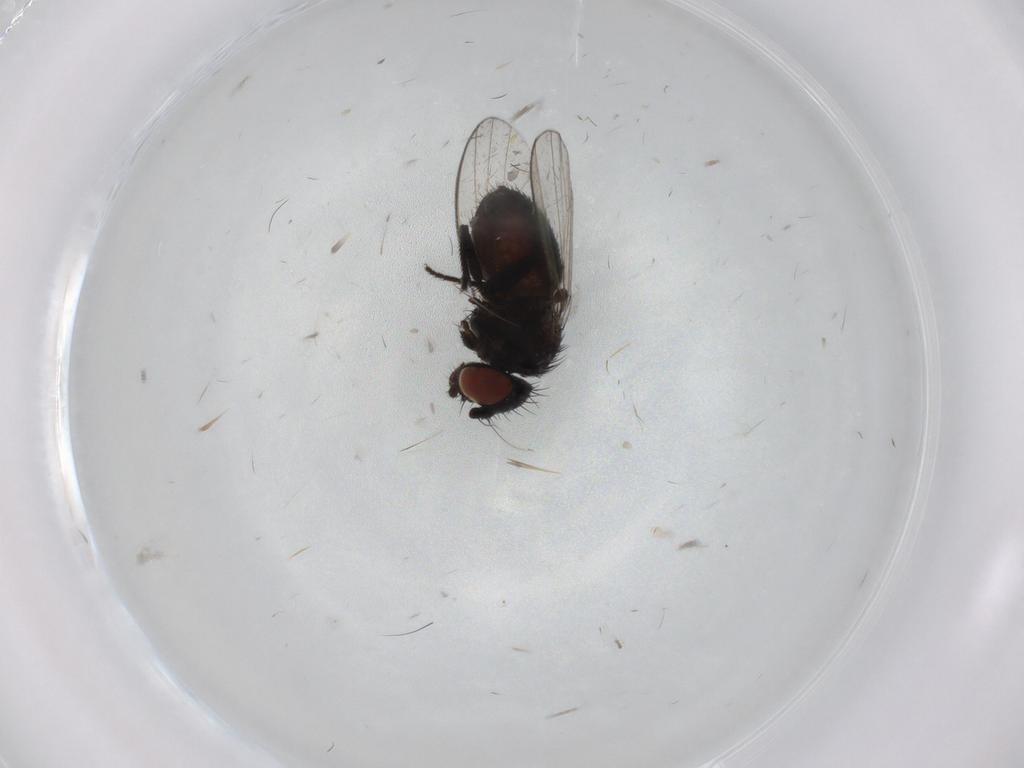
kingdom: Animalia
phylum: Arthropoda
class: Insecta
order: Diptera
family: Milichiidae
